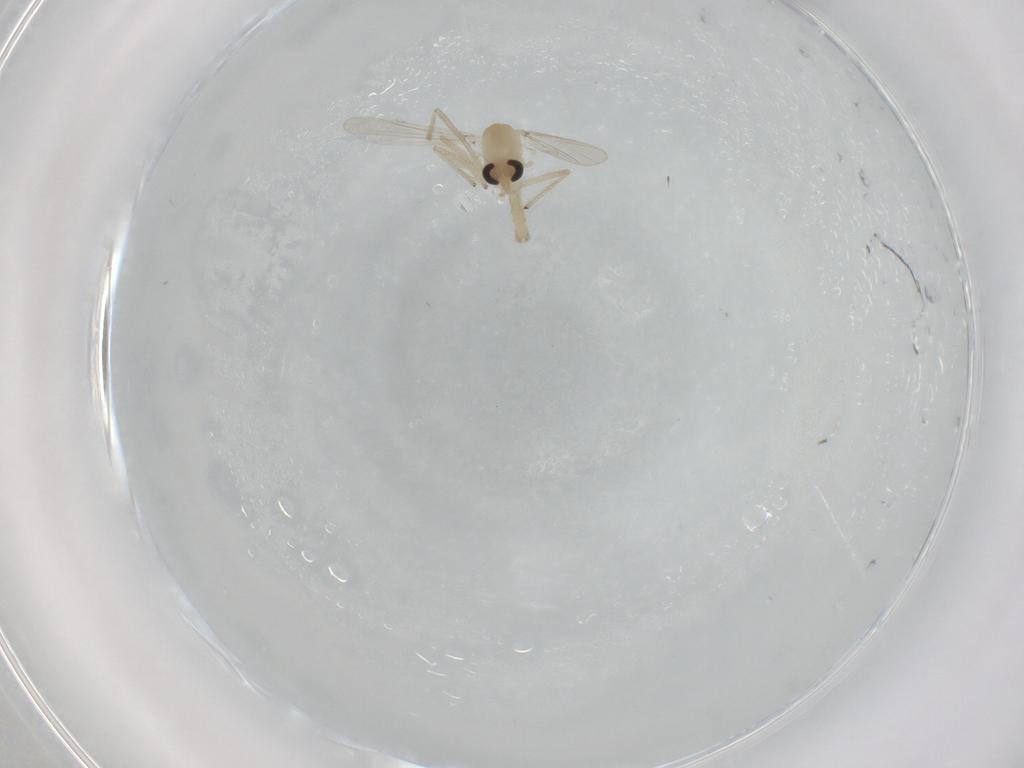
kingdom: Animalia
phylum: Arthropoda
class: Insecta
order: Diptera
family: Chironomidae
